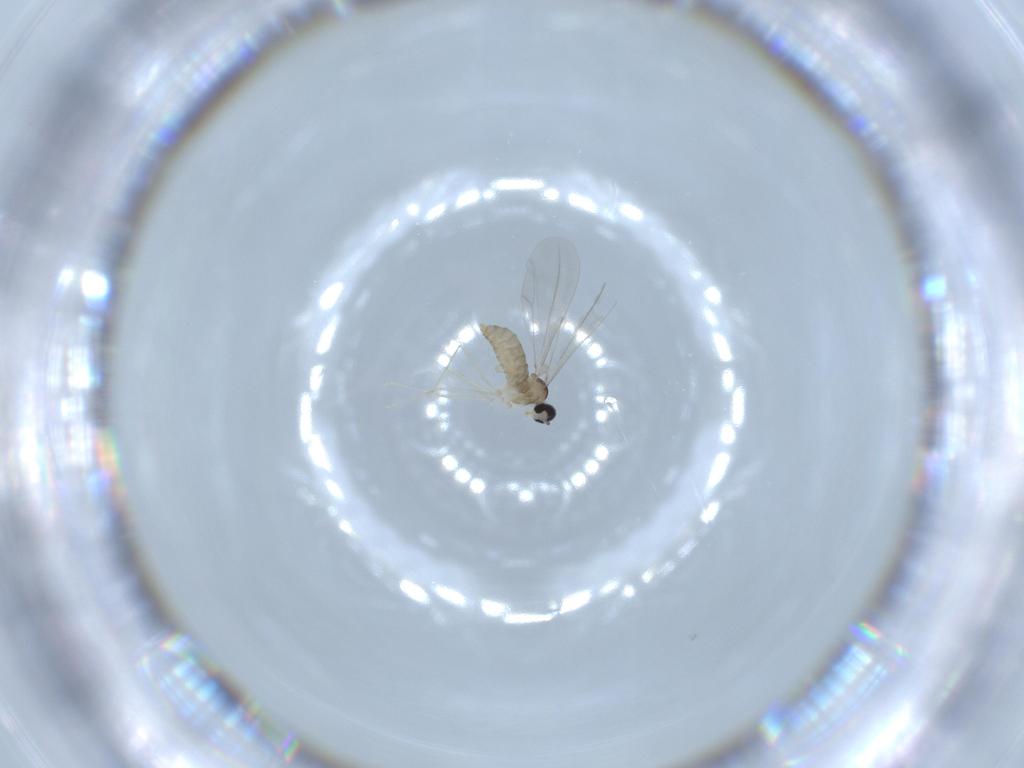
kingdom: Animalia
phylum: Arthropoda
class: Insecta
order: Diptera
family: Cecidomyiidae
